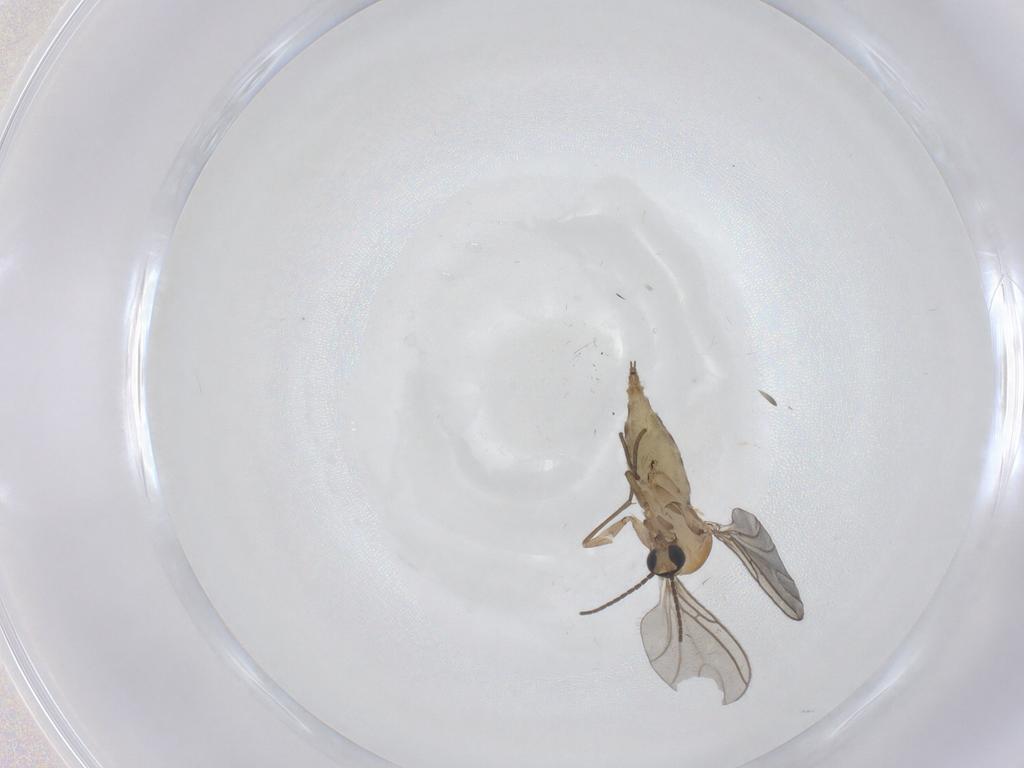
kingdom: Animalia
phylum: Arthropoda
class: Insecta
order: Diptera
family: Sciaridae
